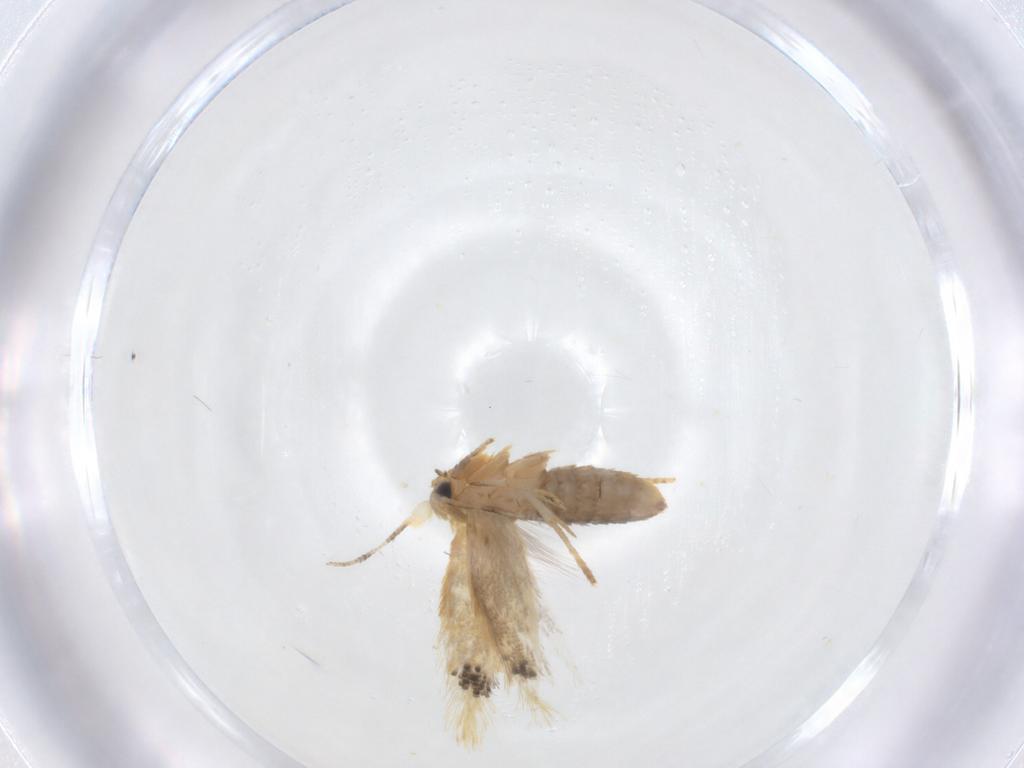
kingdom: Animalia
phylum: Arthropoda
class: Insecta
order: Lepidoptera
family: Nepticulidae
